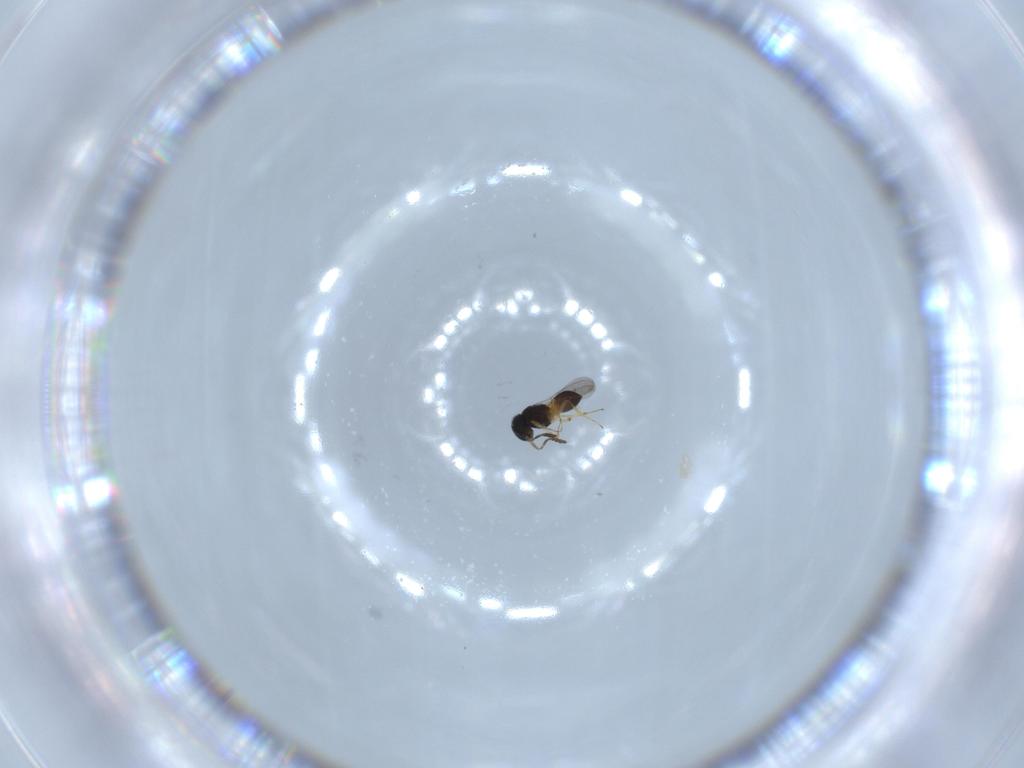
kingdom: Animalia
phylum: Arthropoda
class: Insecta
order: Hymenoptera
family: Scelionidae
